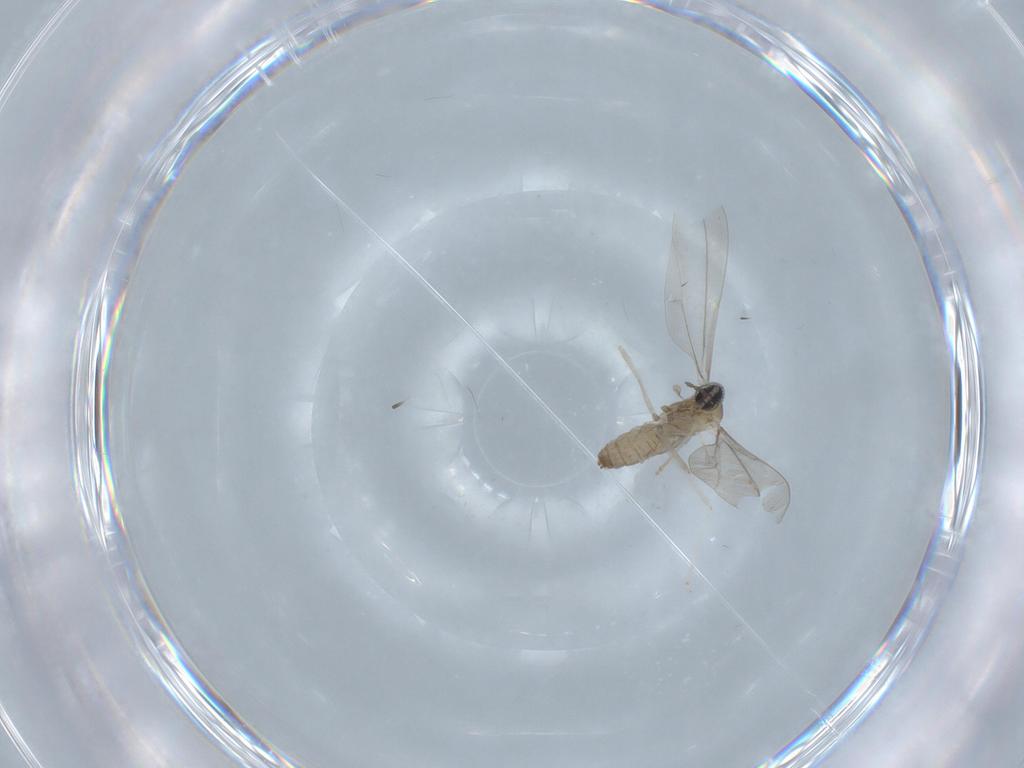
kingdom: Animalia
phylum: Arthropoda
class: Insecta
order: Diptera
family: Cecidomyiidae
